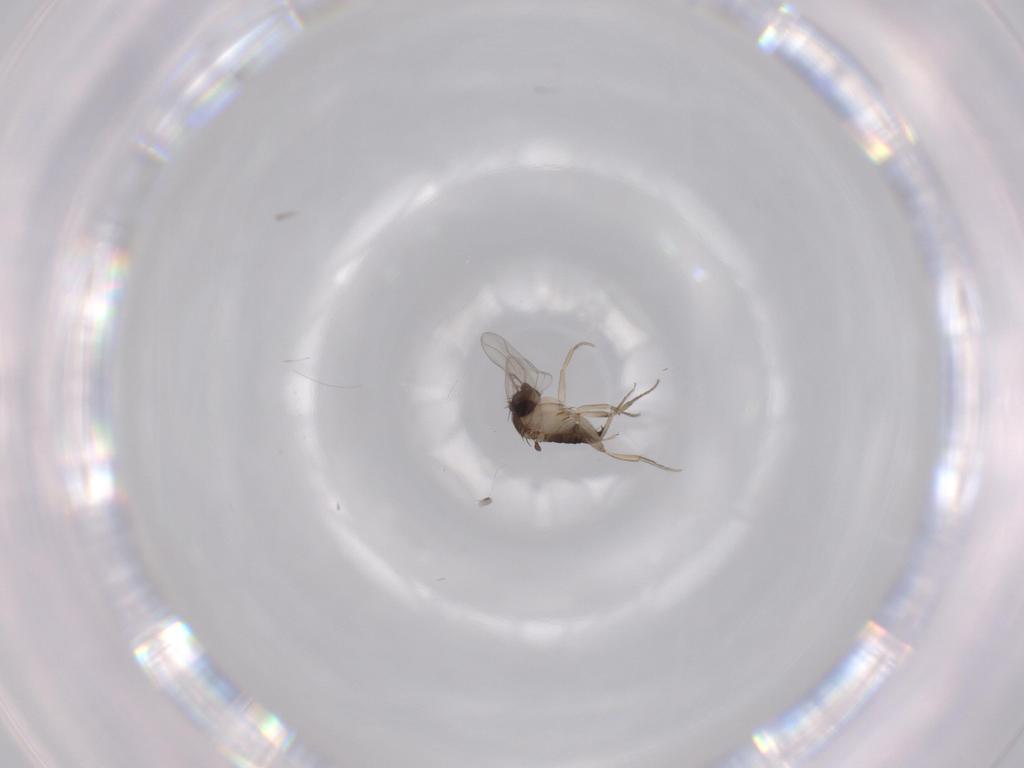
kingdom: Animalia
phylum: Arthropoda
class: Insecta
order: Diptera
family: Phoridae
